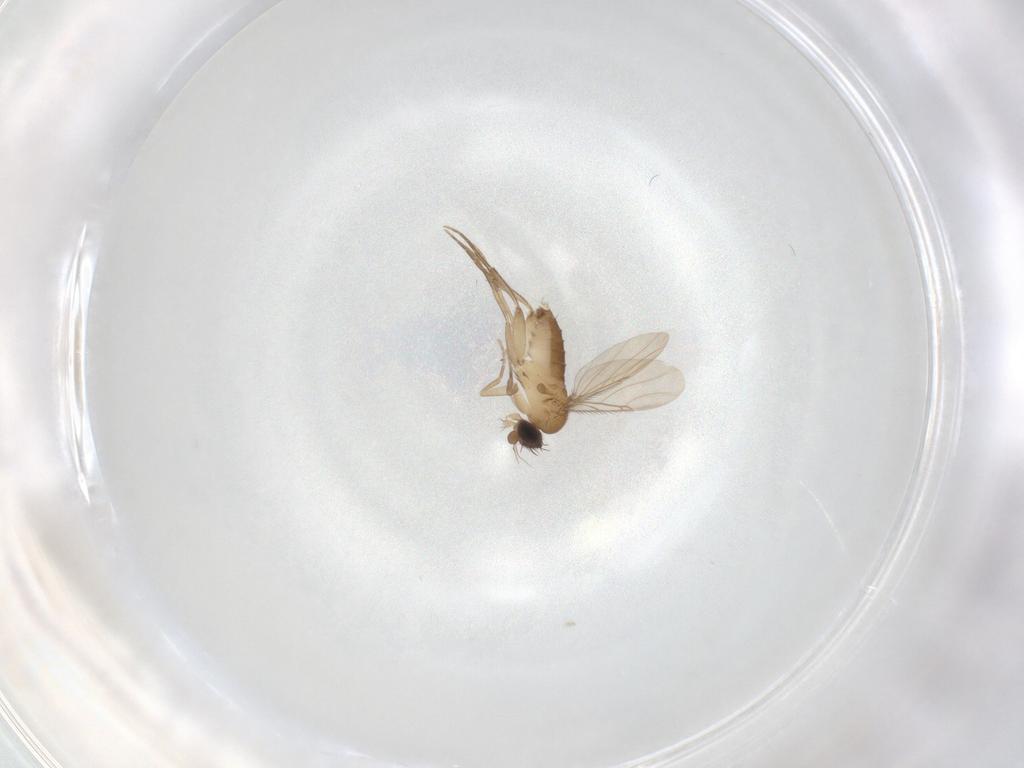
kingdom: Animalia
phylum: Arthropoda
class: Insecta
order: Diptera
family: Phoridae
